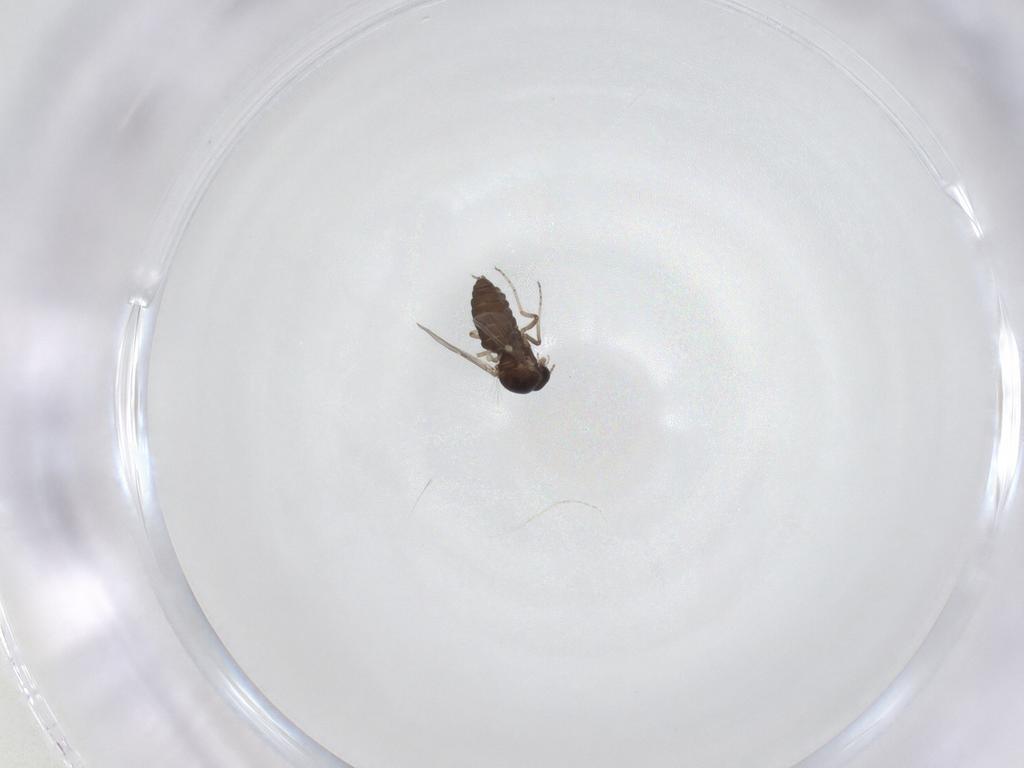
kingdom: Animalia
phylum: Arthropoda
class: Insecta
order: Diptera
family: Ceratopogonidae
